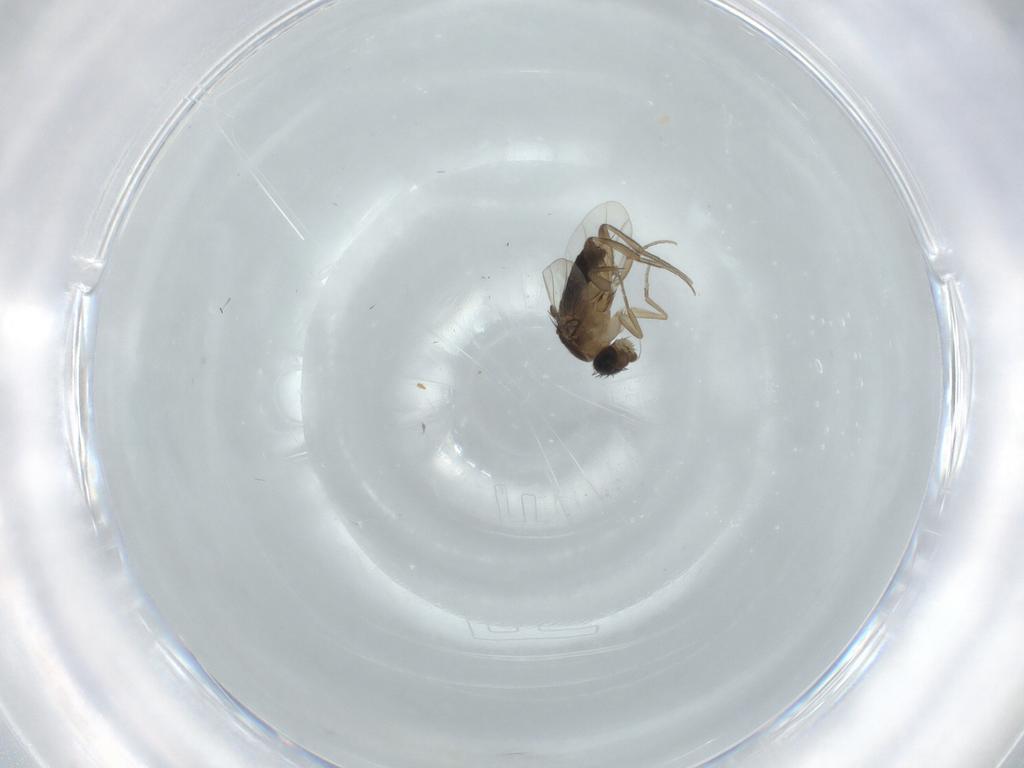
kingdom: Animalia
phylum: Arthropoda
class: Insecta
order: Diptera
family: Phoridae
